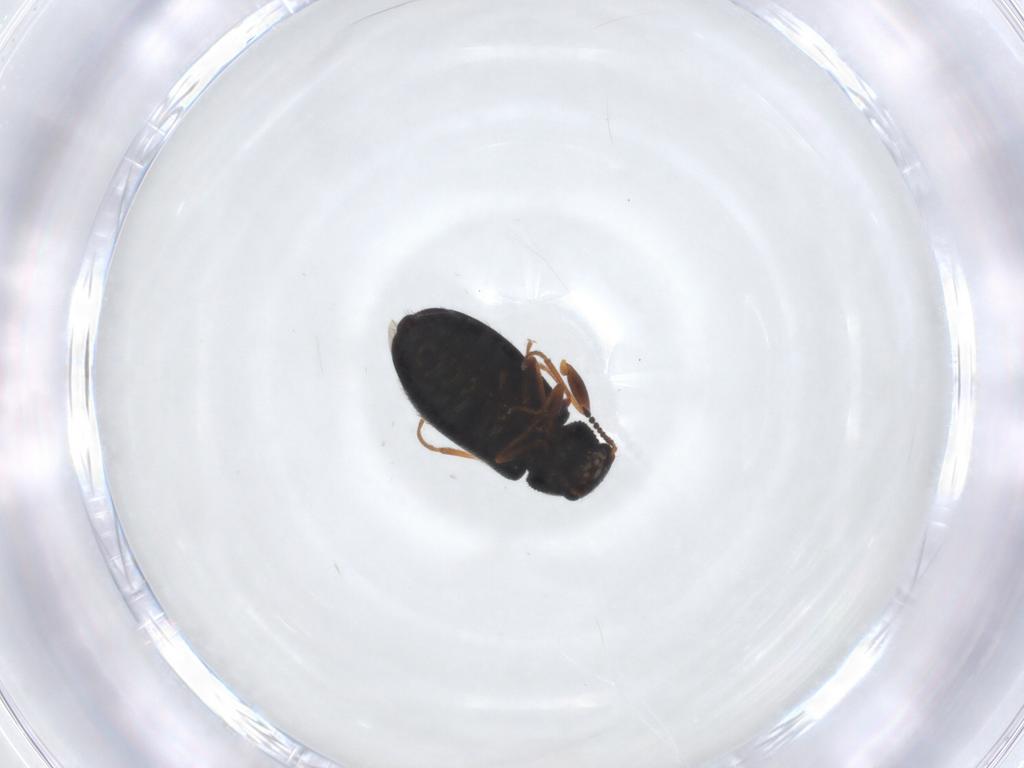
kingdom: Animalia
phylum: Arthropoda
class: Insecta
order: Coleoptera
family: Melyridae
